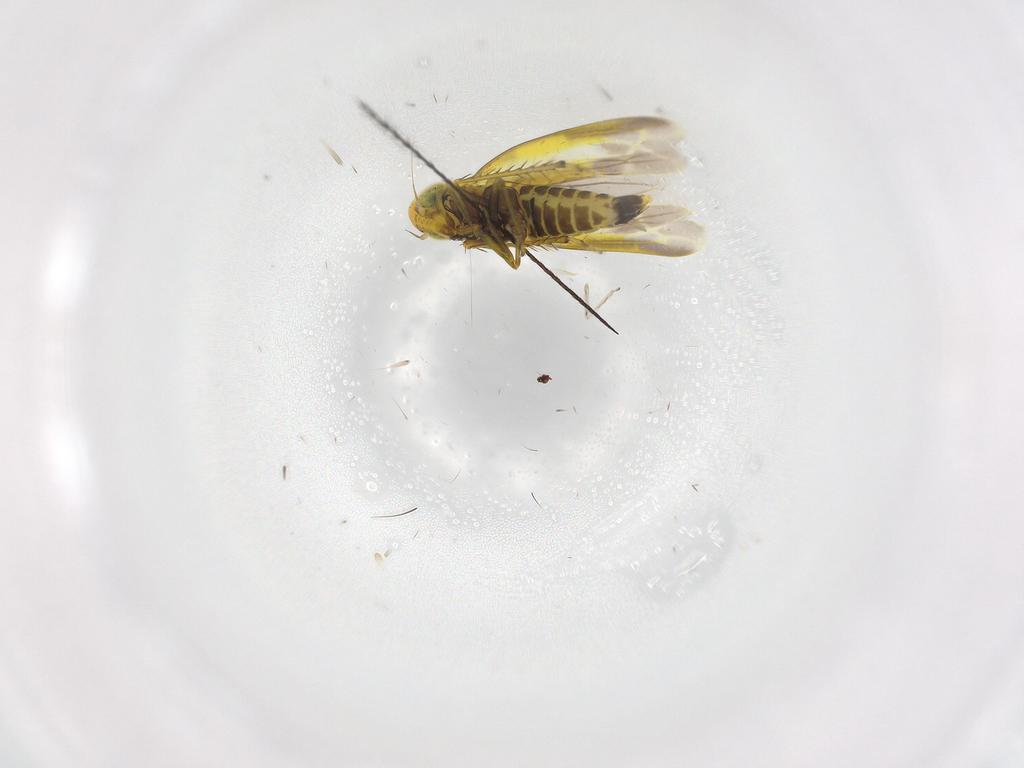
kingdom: Animalia
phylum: Arthropoda
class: Insecta
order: Hemiptera
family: Cicadellidae
